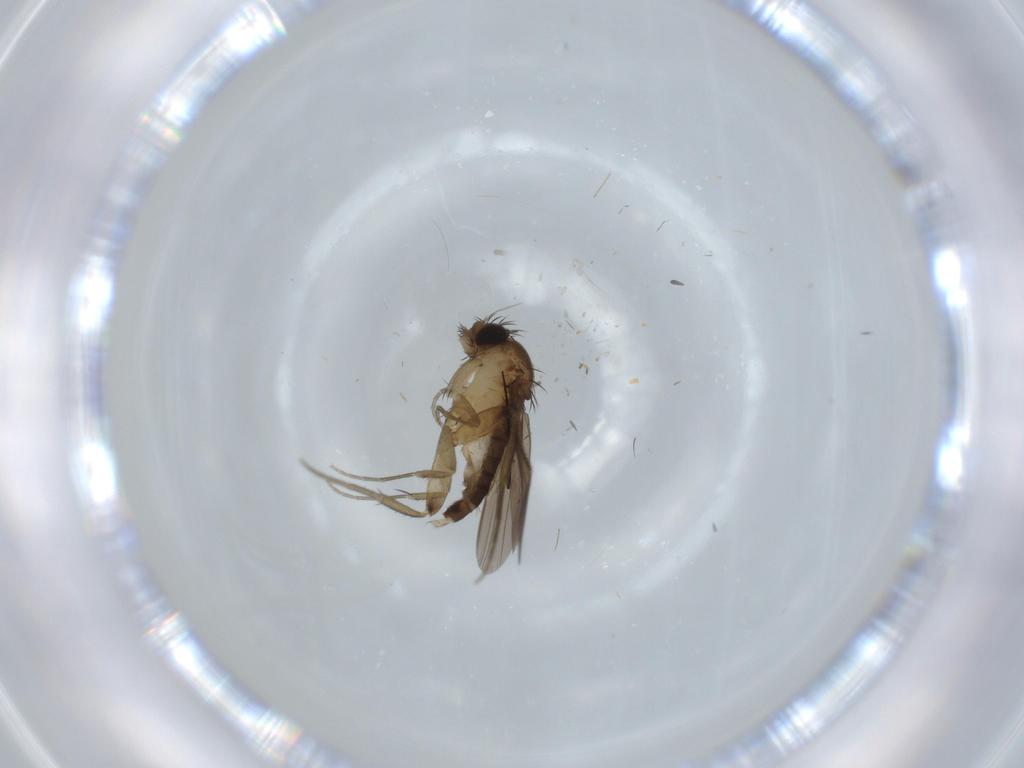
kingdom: Animalia
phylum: Arthropoda
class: Insecta
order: Diptera
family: Phoridae
